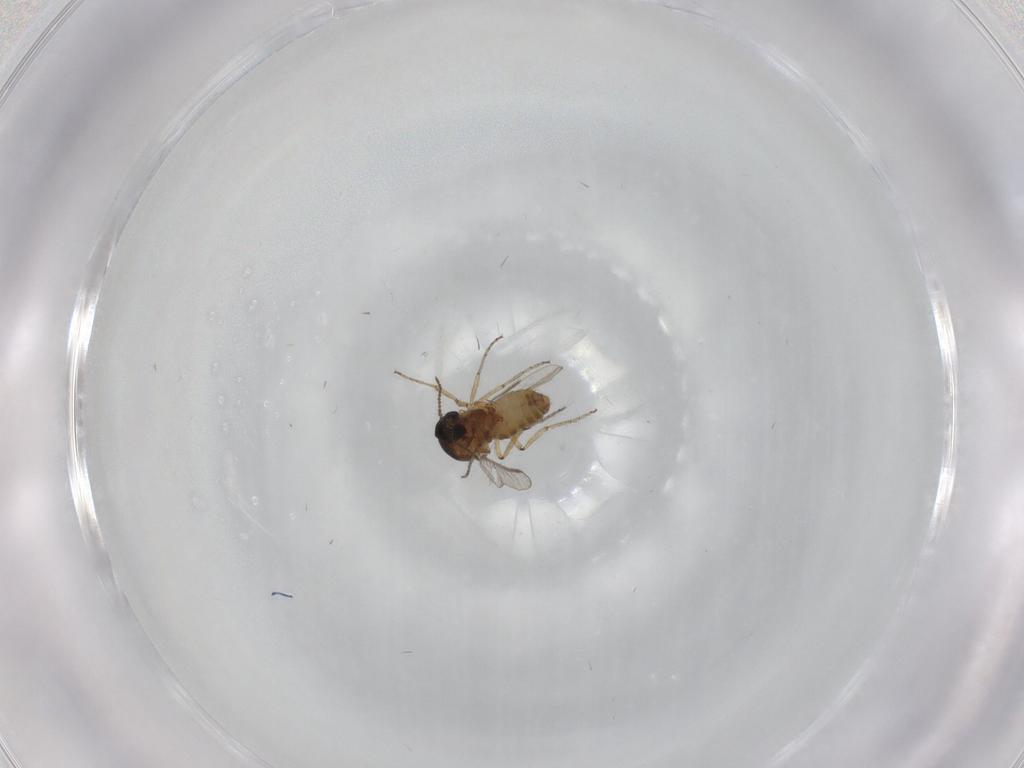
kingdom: Animalia
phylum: Arthropoda
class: Insecta
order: Diptera
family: Ceratopogonidae
